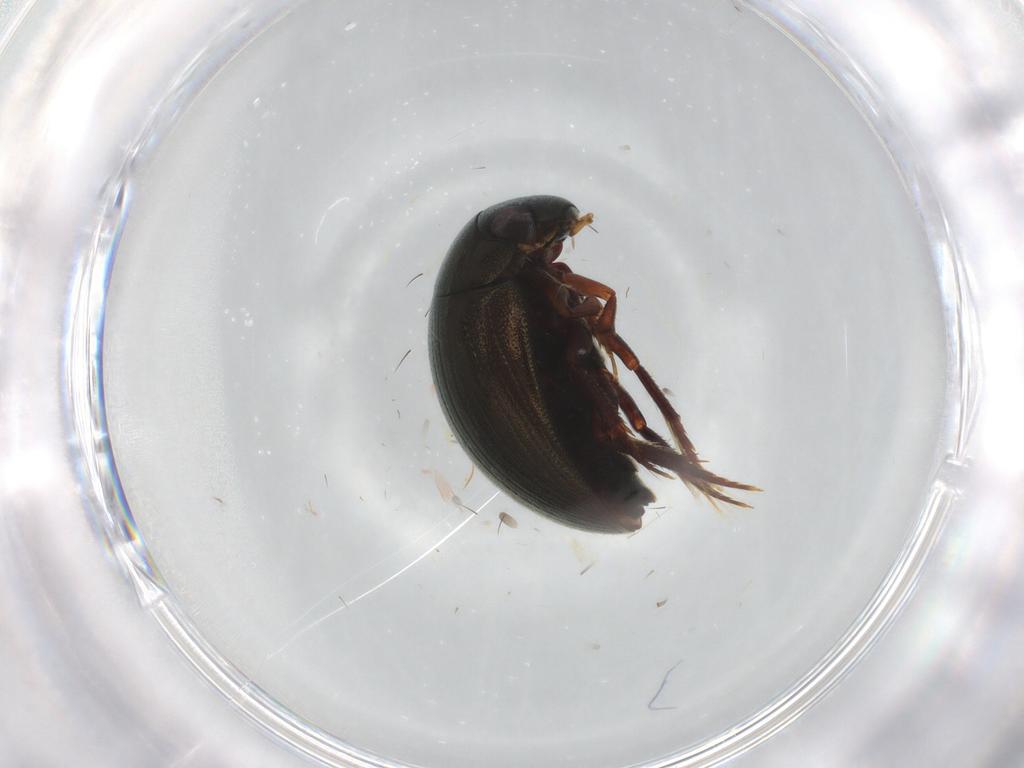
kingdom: Animalia
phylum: Arthropoda
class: Insecta
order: Coleoptera
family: Hydrophilidae
